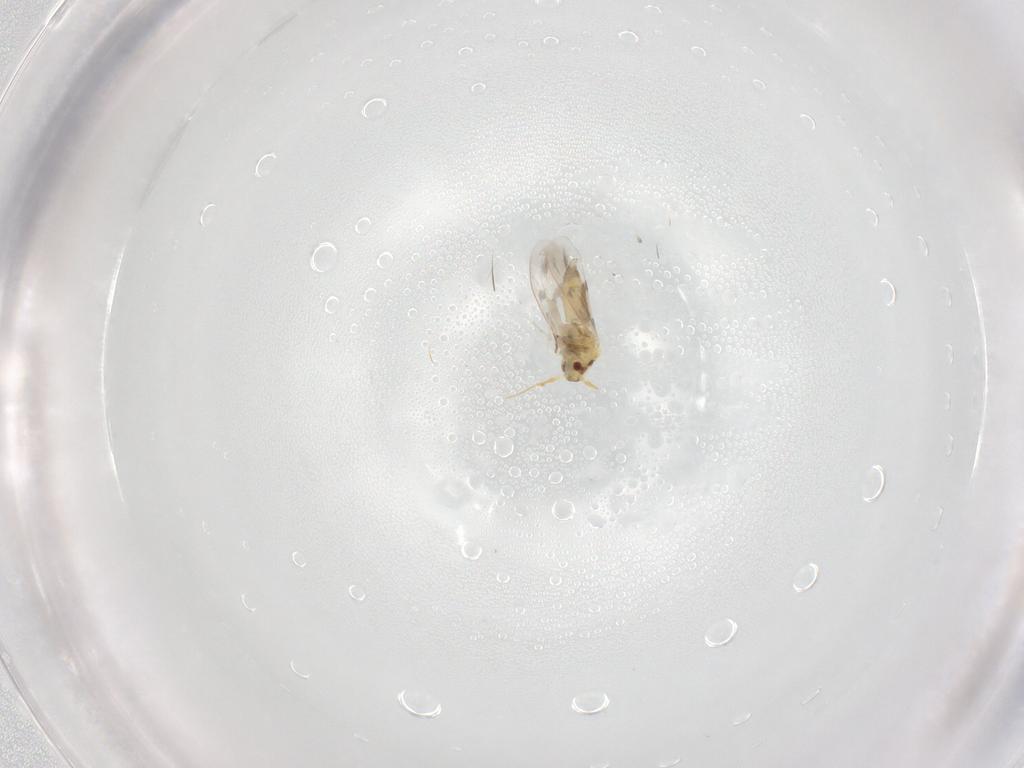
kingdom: Animalia
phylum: Arthropoda
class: Insecta
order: Hemiptera
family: Aleyrodidae
